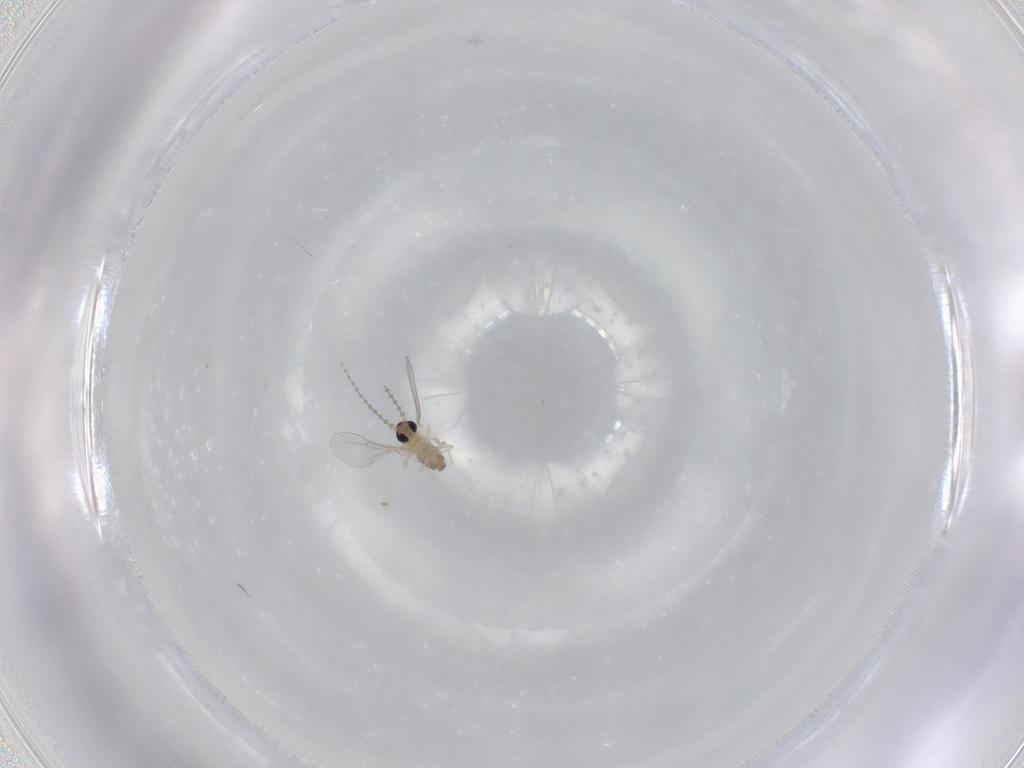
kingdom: Animalia
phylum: Arthropoda
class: Insecta
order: Diptera
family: Cecidomyiidae
